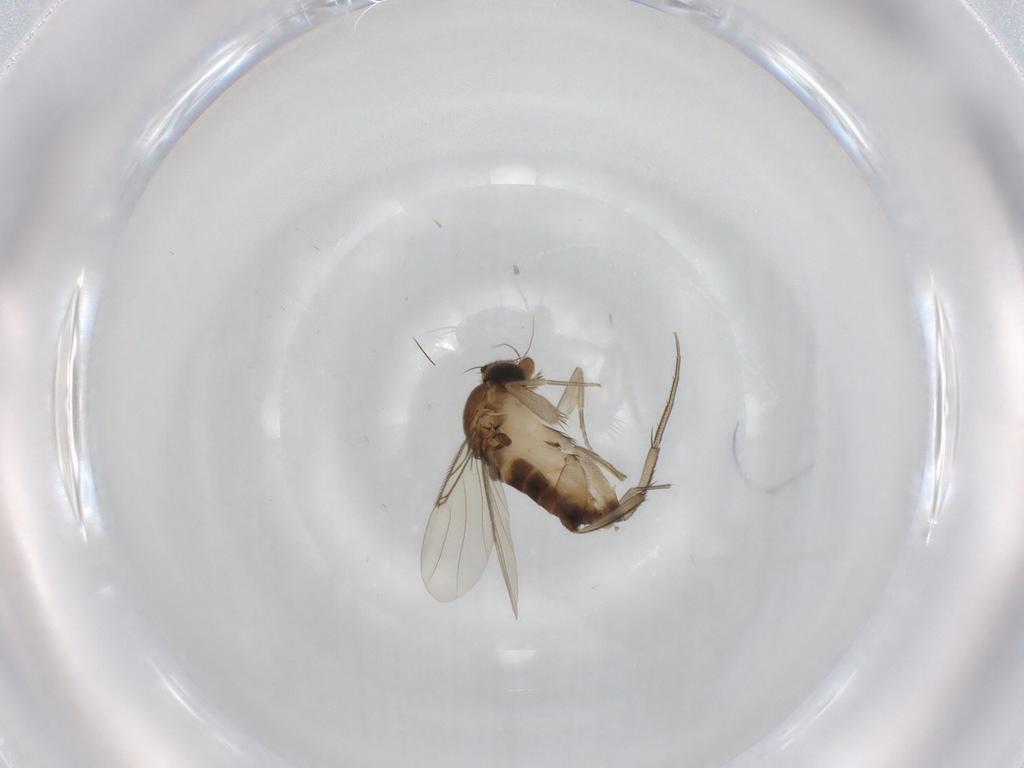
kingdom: Animalia
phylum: Arthropoda
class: Insecta
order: Diptera
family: Phoridae
